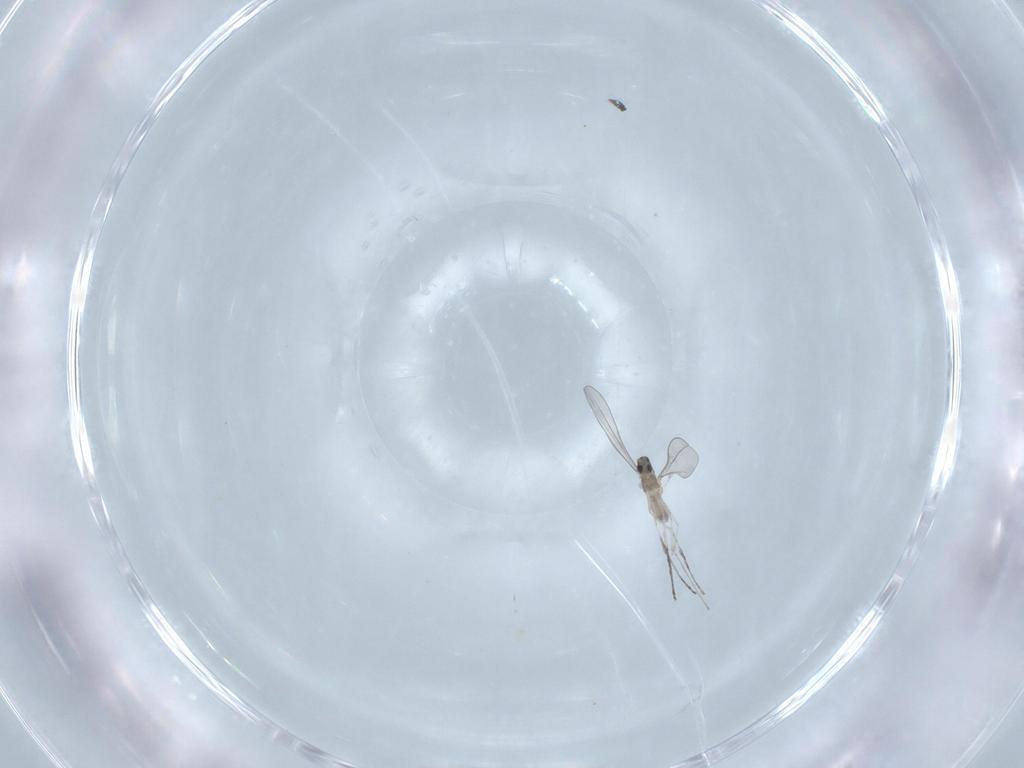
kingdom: Animalia
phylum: Arthropoda
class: Insecta
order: Diptera
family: Cecidomyiidae
